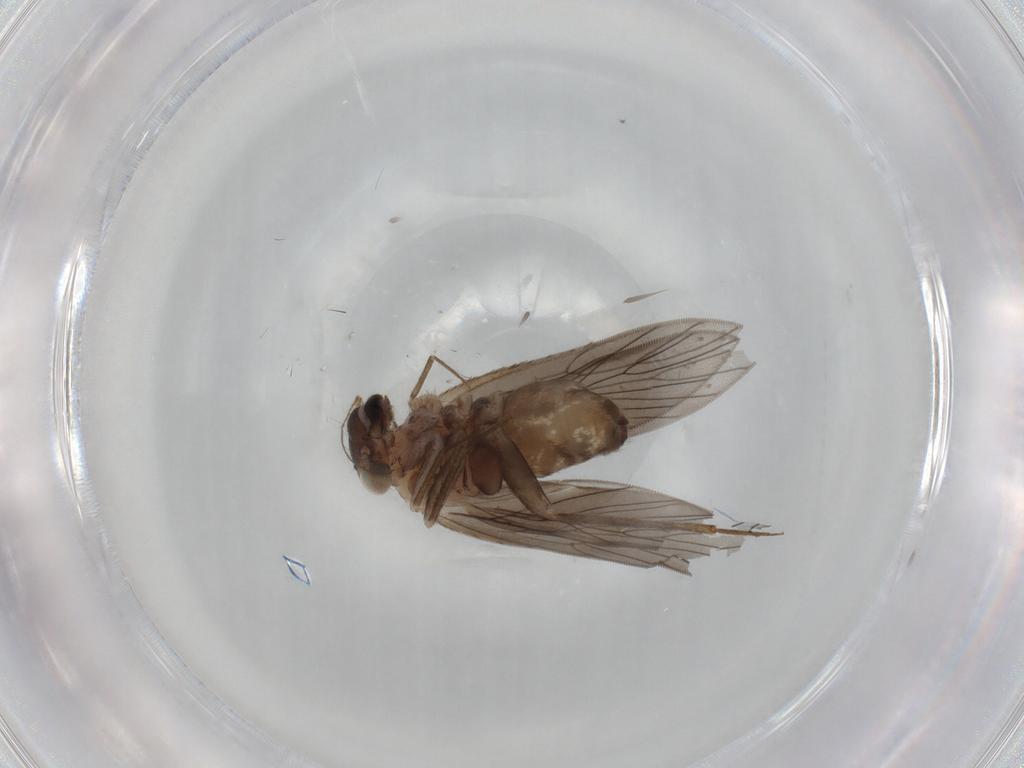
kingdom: Animalia
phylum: Arthropoda
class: Insecta
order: Psocodea
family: Lepidopsocidae
